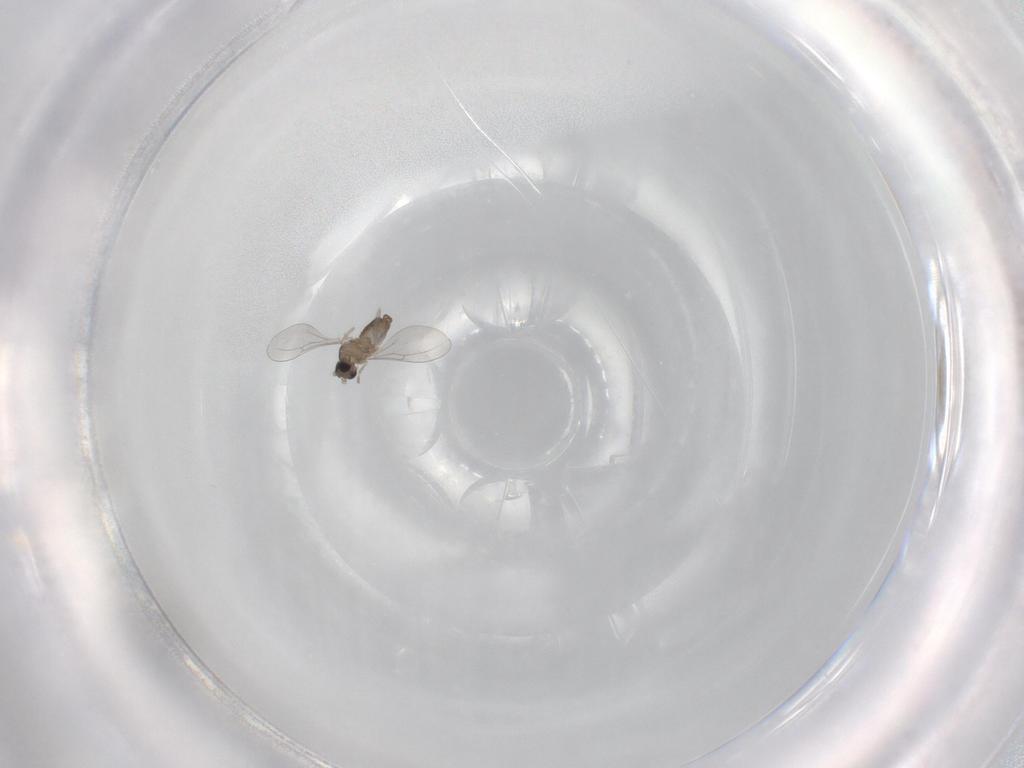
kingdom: Animalia
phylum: Arthropoda
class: Insecta
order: Diptera
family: Cecidomyiidae
